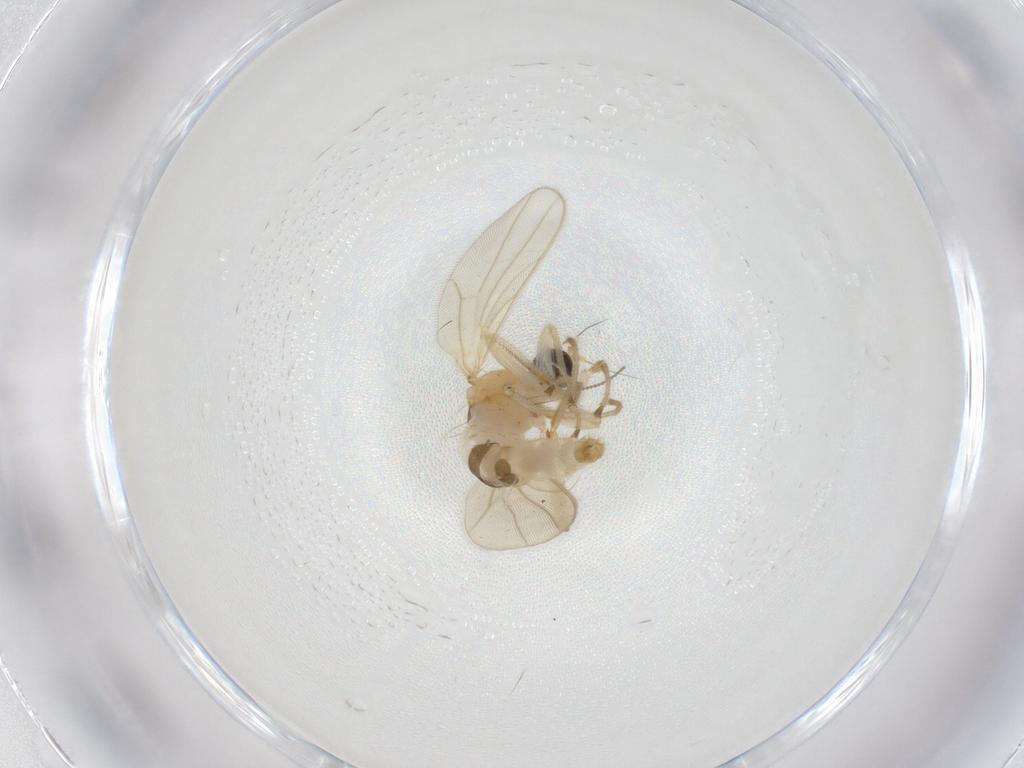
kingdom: Animalia
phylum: Arthropoda
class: Insecta
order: Diptera
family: Hybotidae
